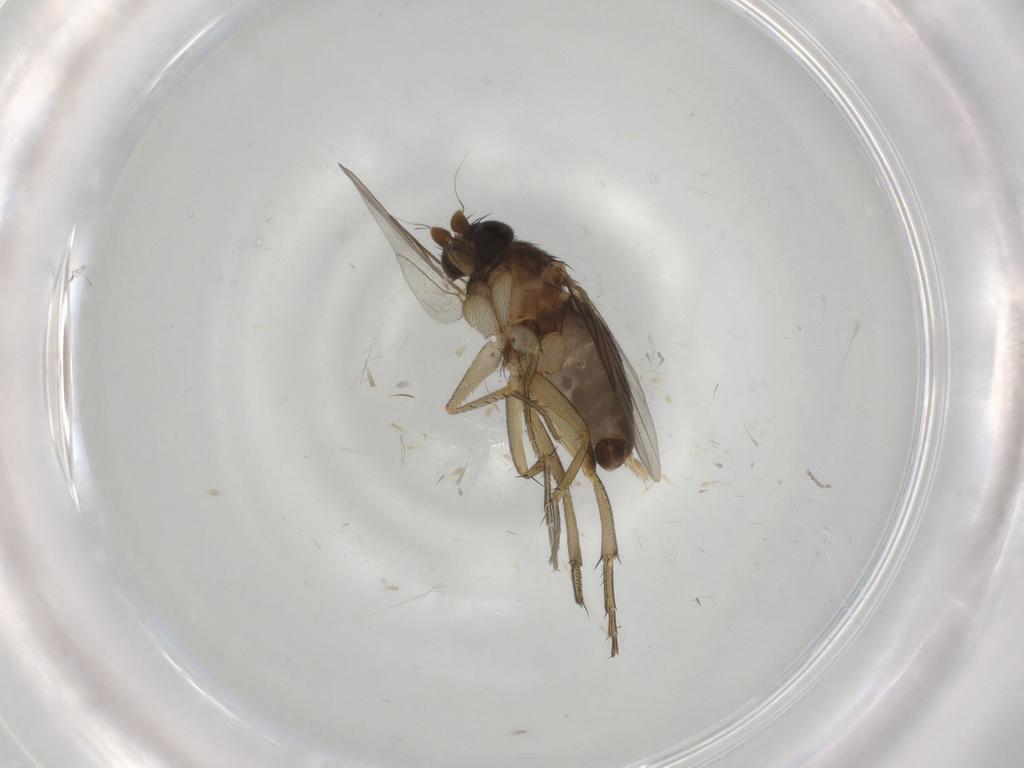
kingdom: Animalia
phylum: Arthropoda
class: Insecta
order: Diptera
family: Phoridae
